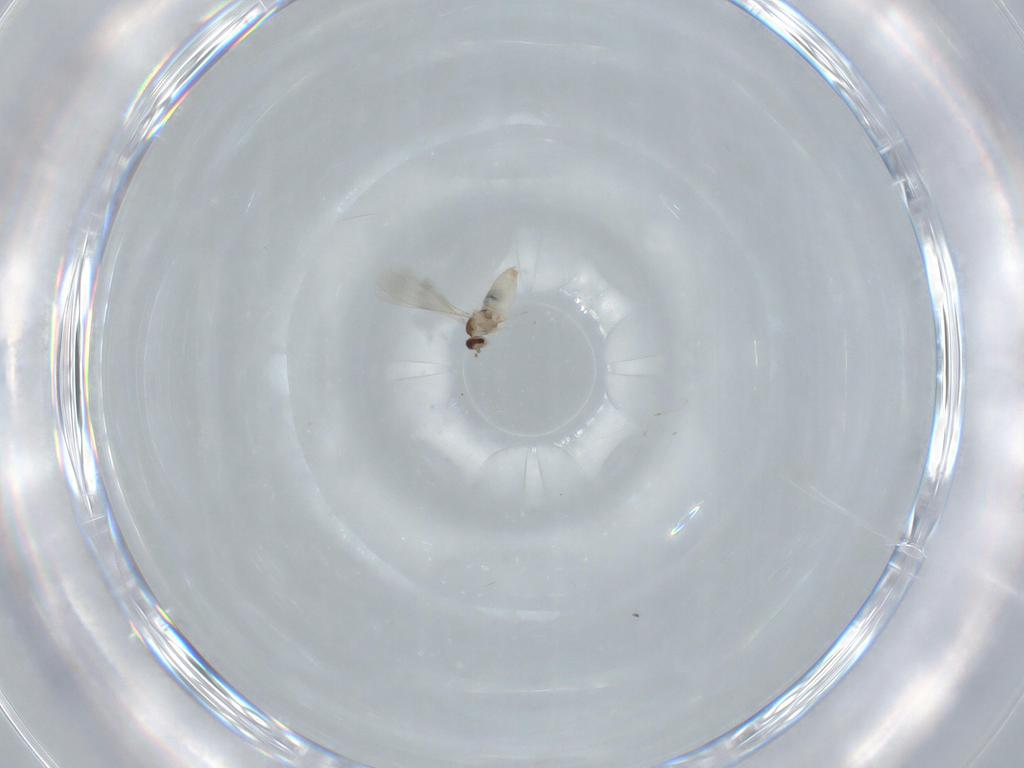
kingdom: Animalia
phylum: Arthropoda
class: Insecta
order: Diptera
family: Cecidomyiidae
